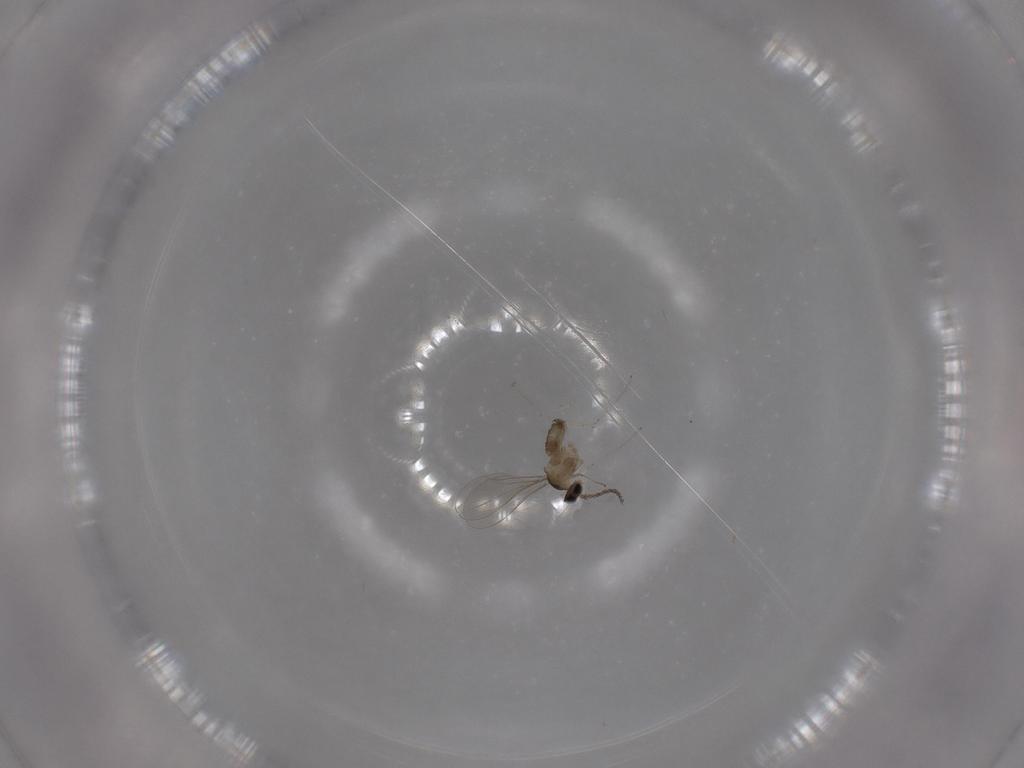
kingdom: Animalia
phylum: Arthropoda
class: Insecta
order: Diptera
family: Cecidomyiidae
